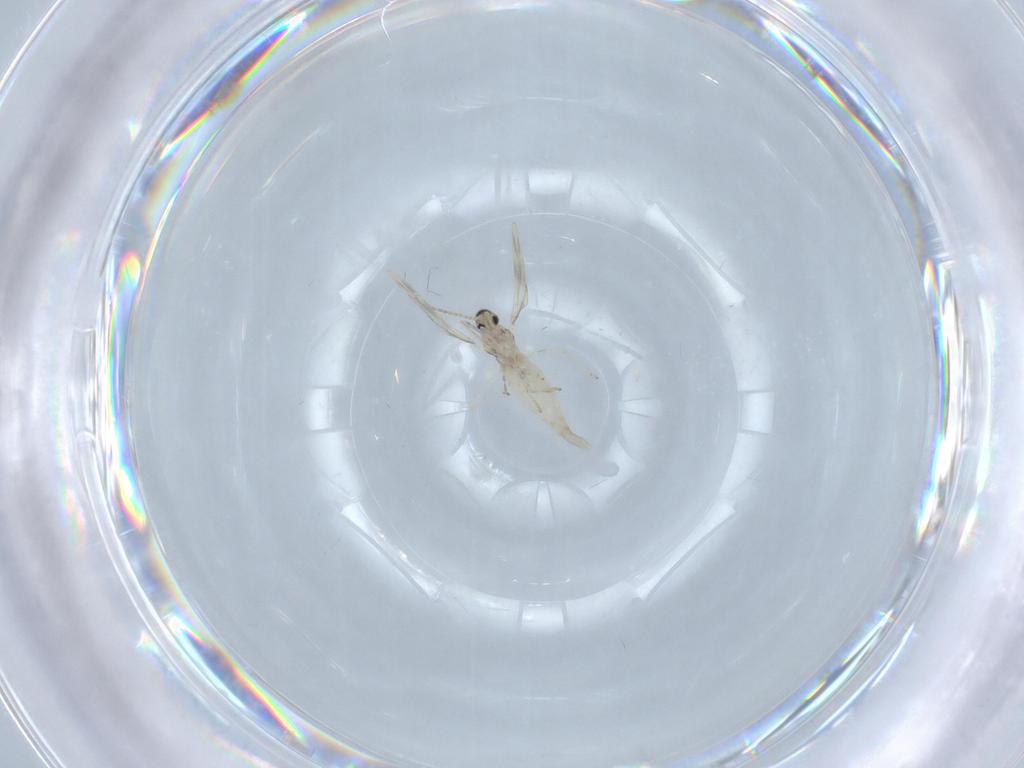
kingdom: Animalia
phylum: Arthropoda
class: Insecta
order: Diptera
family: Cecidomyiidae
